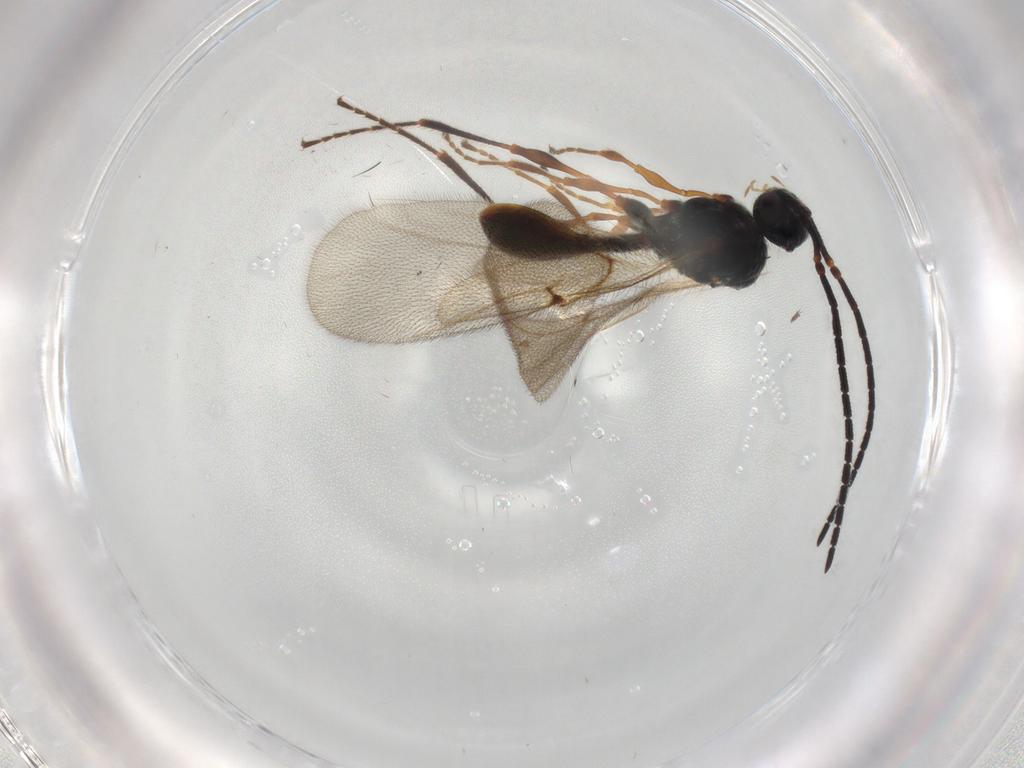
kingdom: Animalia
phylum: Arthropoda
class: Insecta
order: Hymenoptera
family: Diapriidae
